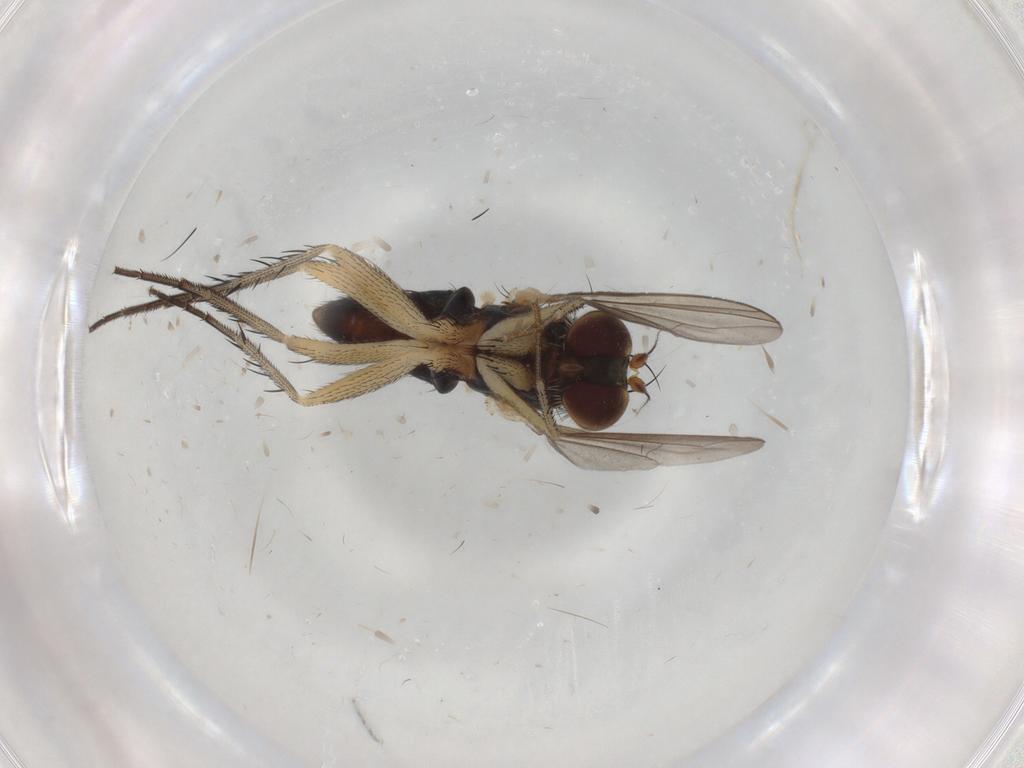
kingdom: Animalia
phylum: Arthropoda
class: Insecta
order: Diptera
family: Dolichopodidae
